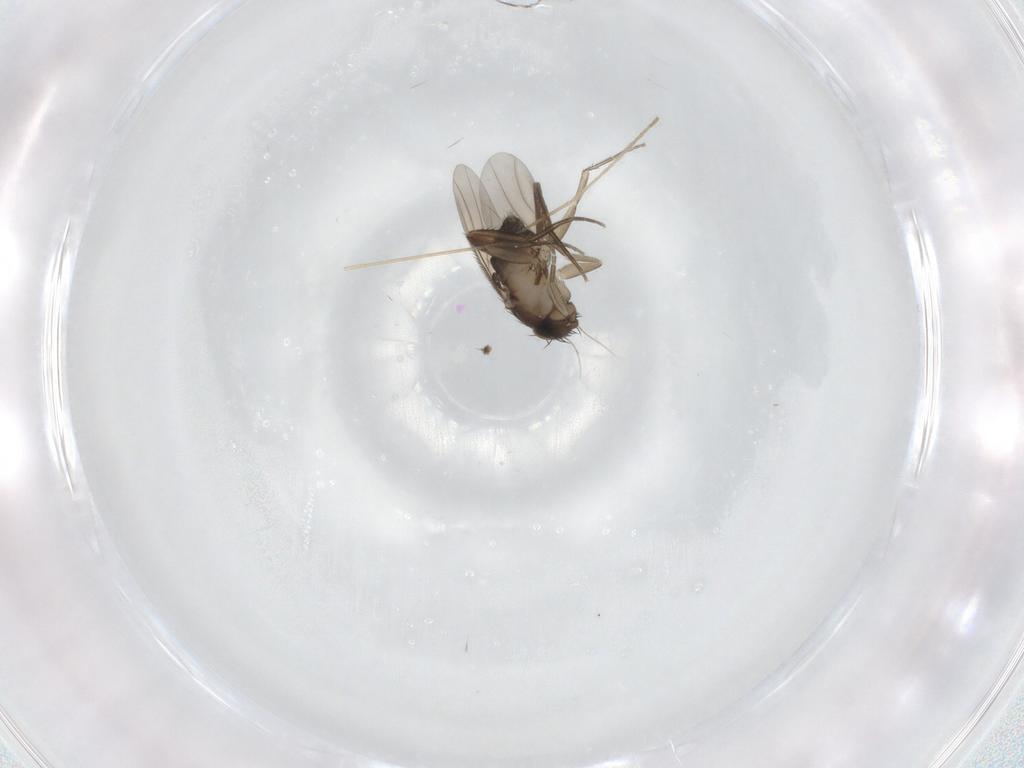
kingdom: Animalia
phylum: Arthropoda
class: Insecta
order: Diptera
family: Phoridae
